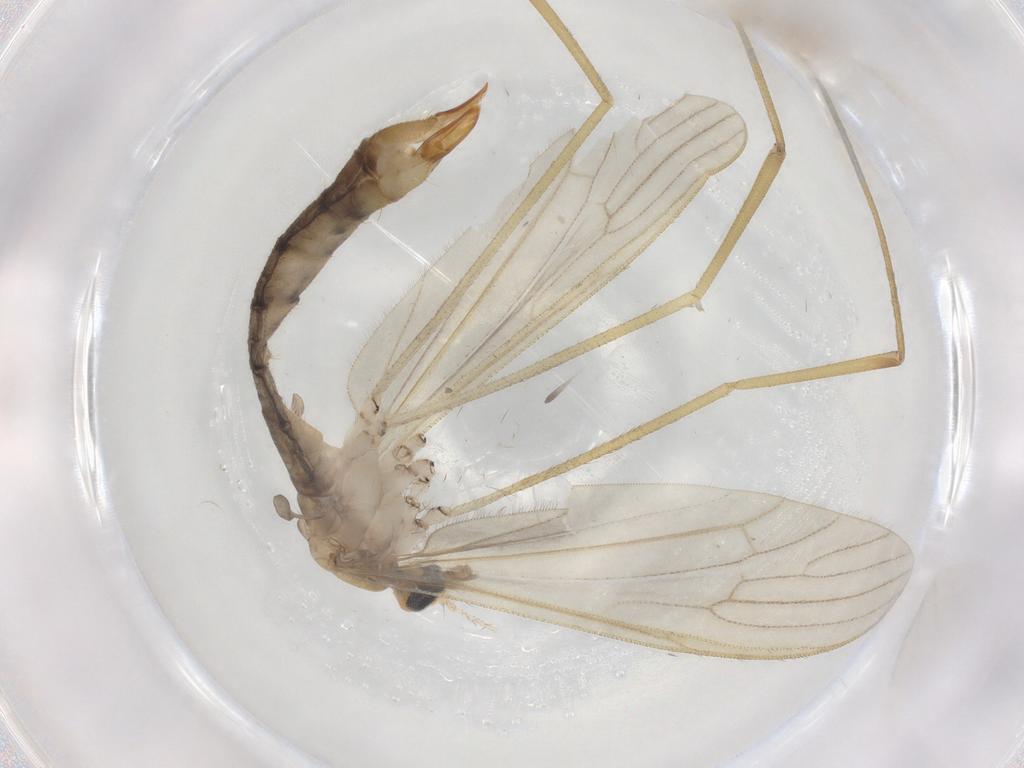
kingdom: Animalia
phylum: Arthropoda
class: Insecta
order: Diptera
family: Limoniidae
